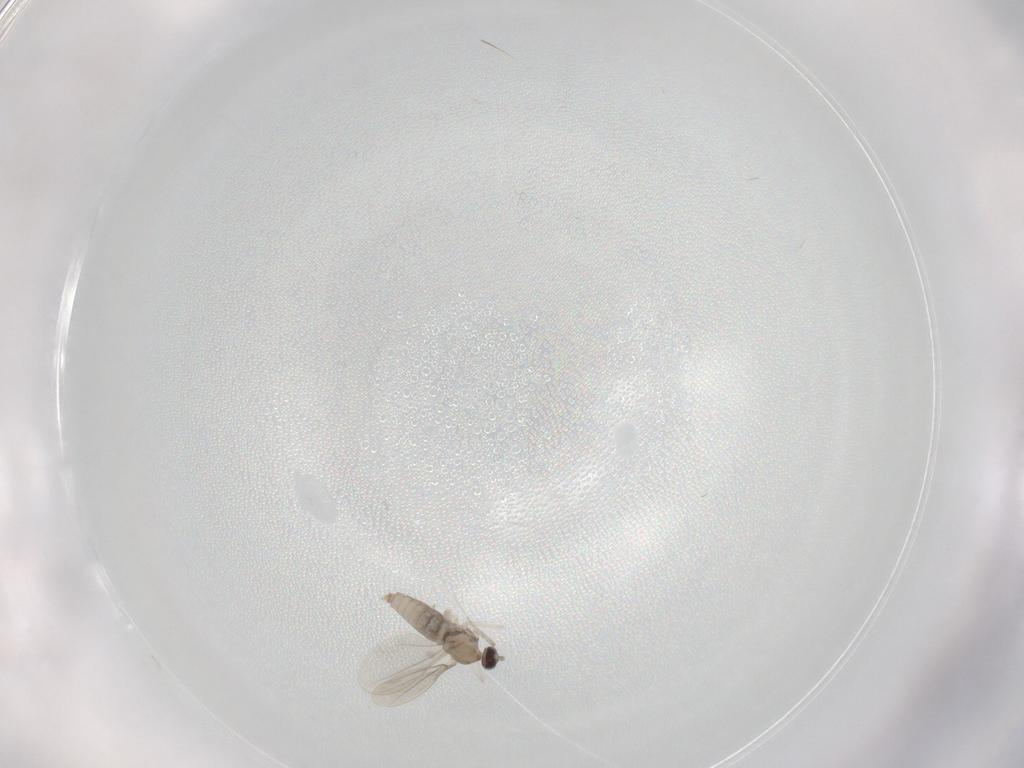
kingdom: Animalia
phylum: Arthropoda
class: Insecta
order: Diptera
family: Cecidomyiidae
